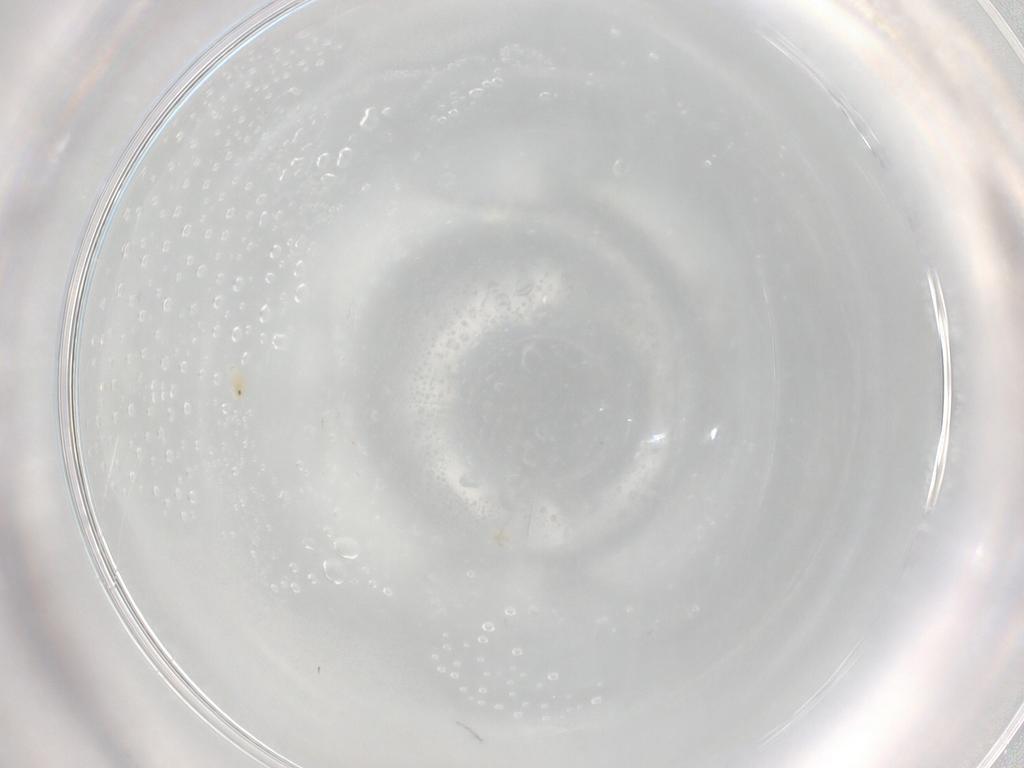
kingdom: Animalia
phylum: Arthropoda
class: Arachnida
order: Trombidiformes
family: Eupodidae
